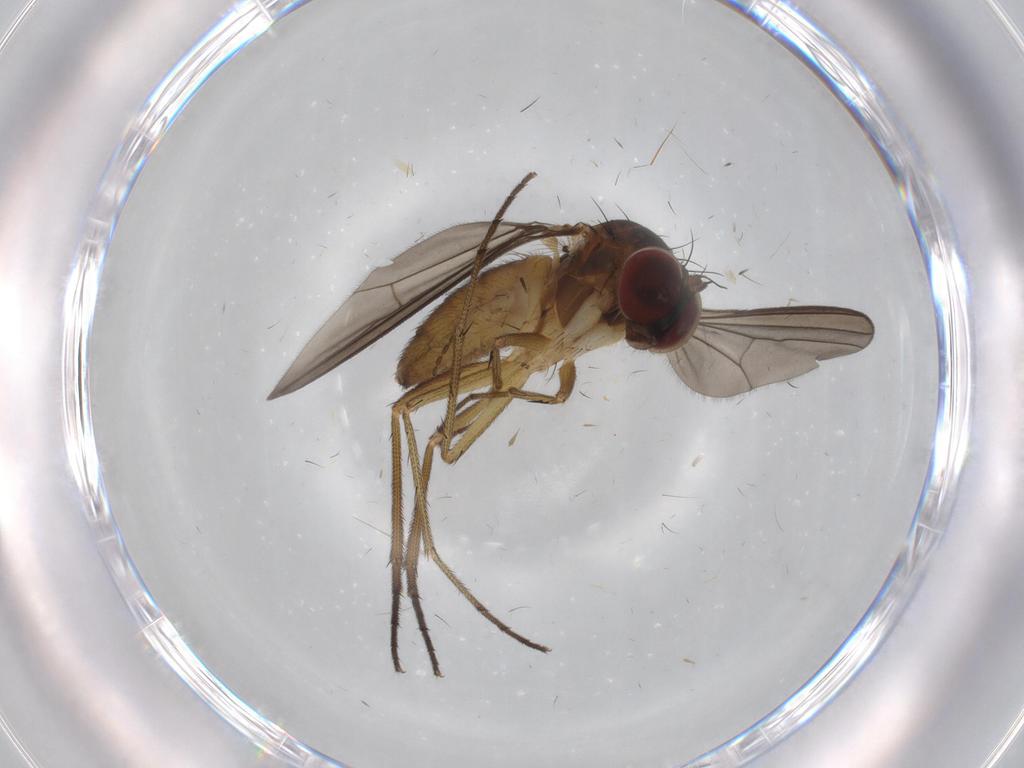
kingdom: Animalia
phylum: Arthropoda
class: Insecta
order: Diptera
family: Dolichopodidae
